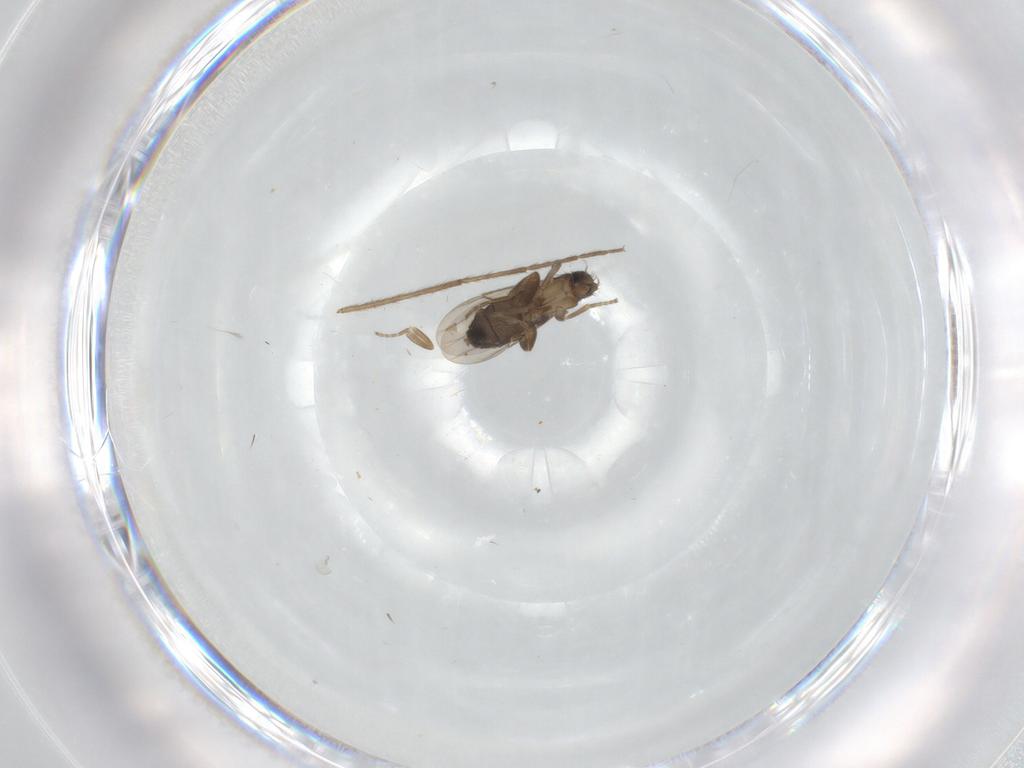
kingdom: Animalia
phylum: Arthropoda
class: Insecta
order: Diptera
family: Phoridae
